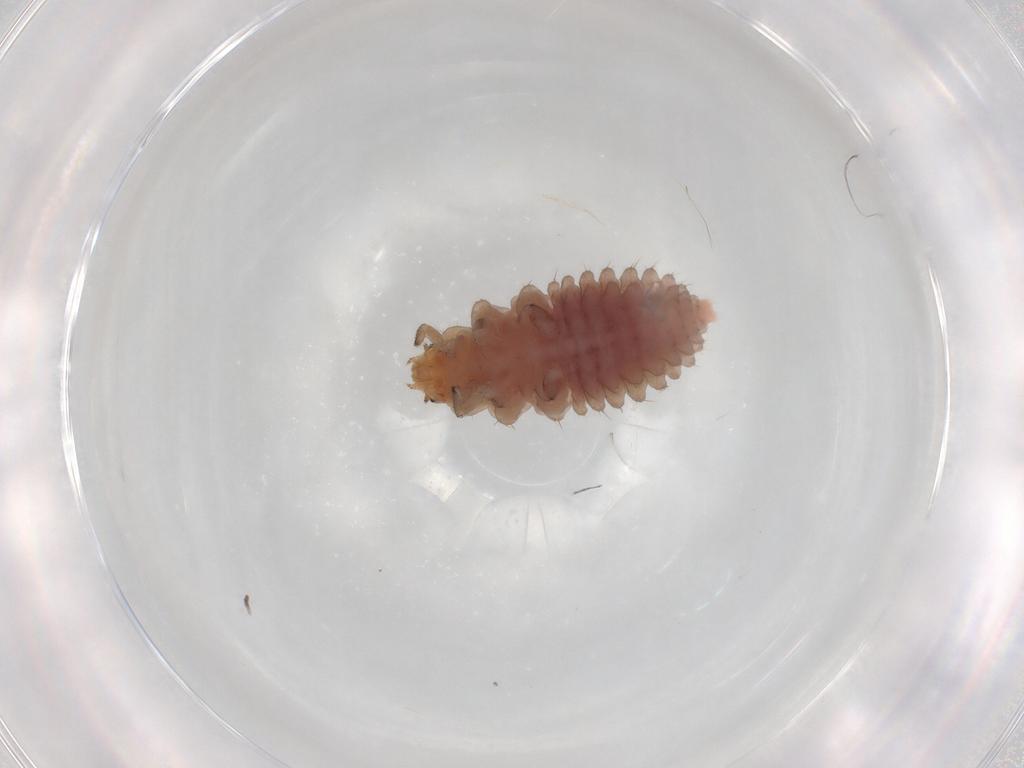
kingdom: Animalia
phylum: Arthropoda
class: Insecta
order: Coleoptera
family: Coccinellidae
